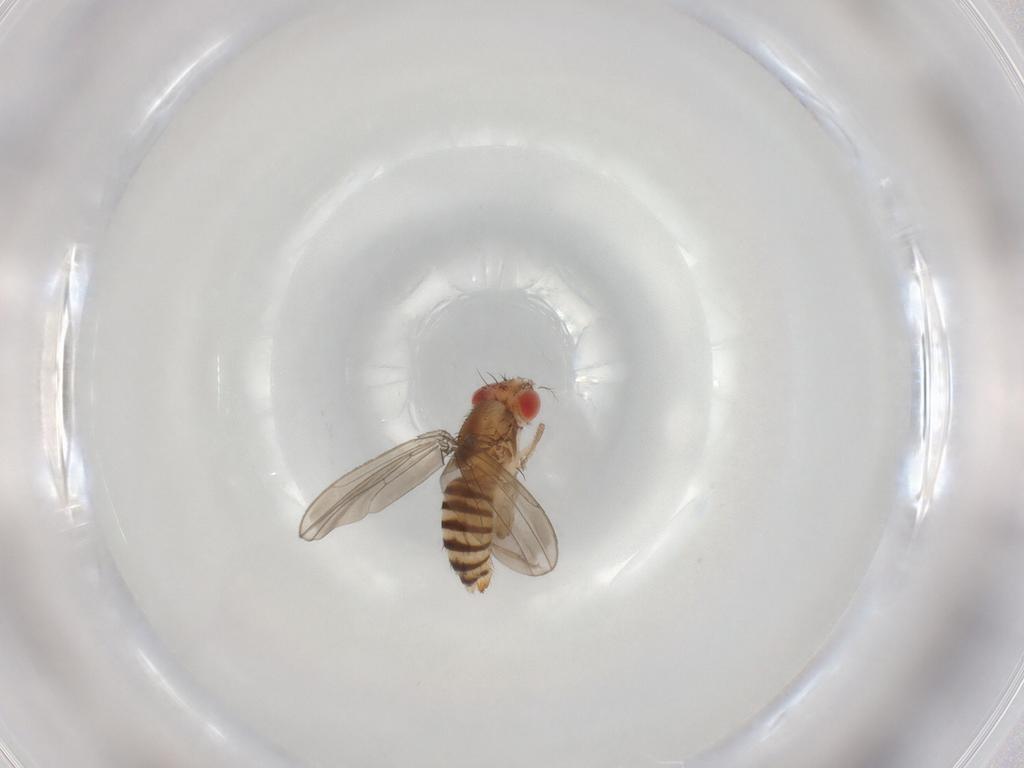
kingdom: Animalia
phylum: Arthropoda
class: Insecta
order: Diptera
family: Drosophilidae
